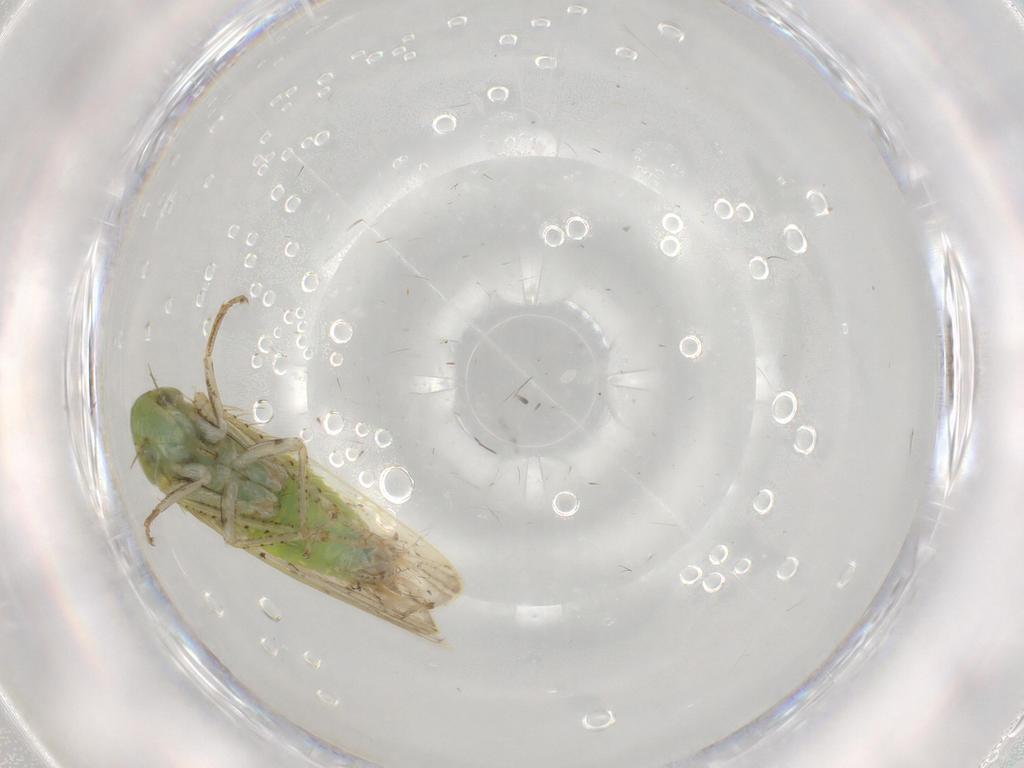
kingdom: Animalia
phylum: Arthropoda
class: Insecta
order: Hemiptera
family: Cicadellidae
